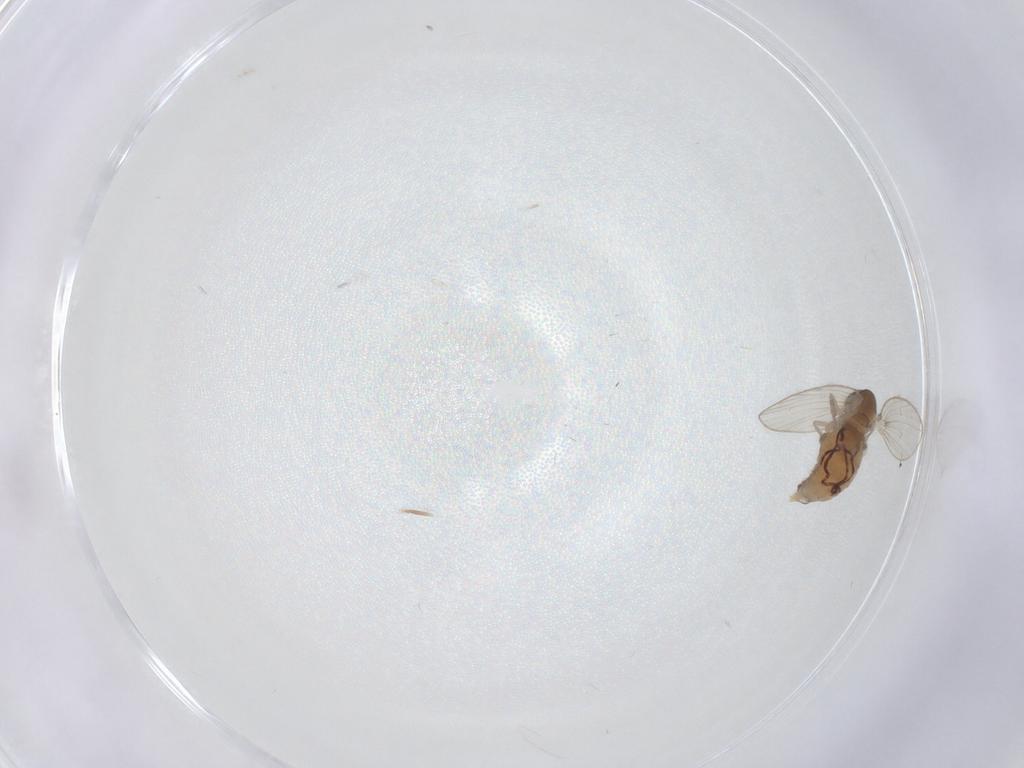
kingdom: Animalia
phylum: Arthropoda
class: Insecta
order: Diptera
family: Psychodidae
